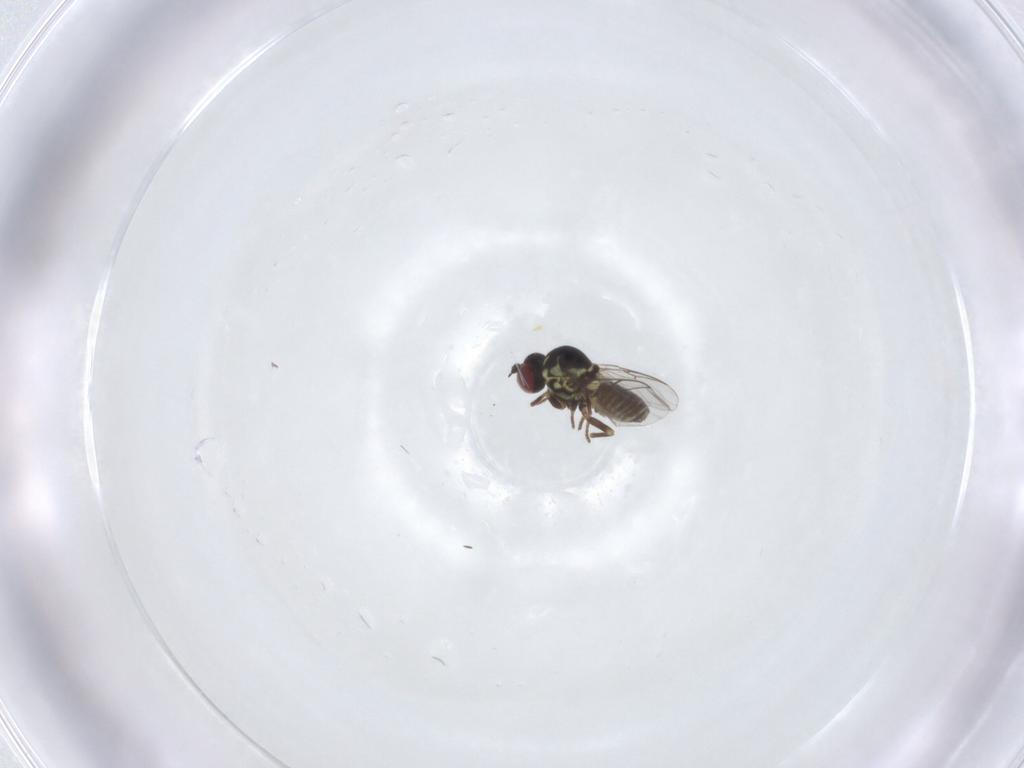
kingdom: Animalia
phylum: Arthropoda
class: Insecta
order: Diptera
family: Mythicomyiidae
